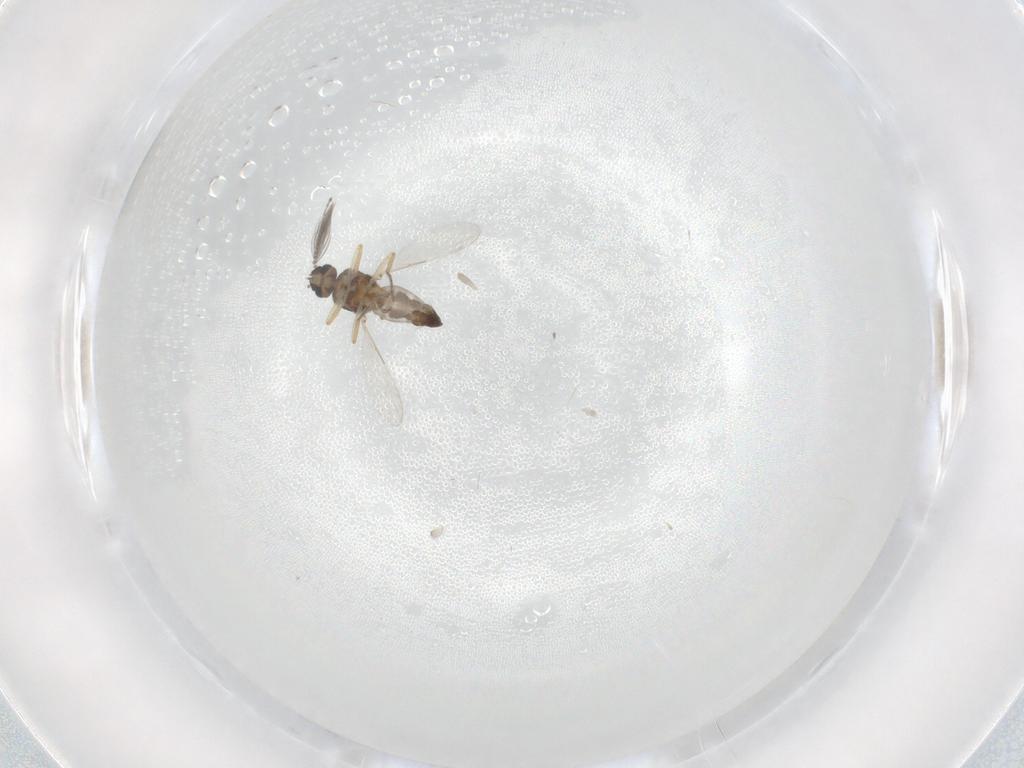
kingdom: Animalia
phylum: Arthropoda
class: Insecta
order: Diptera
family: Ceratopogonidae
